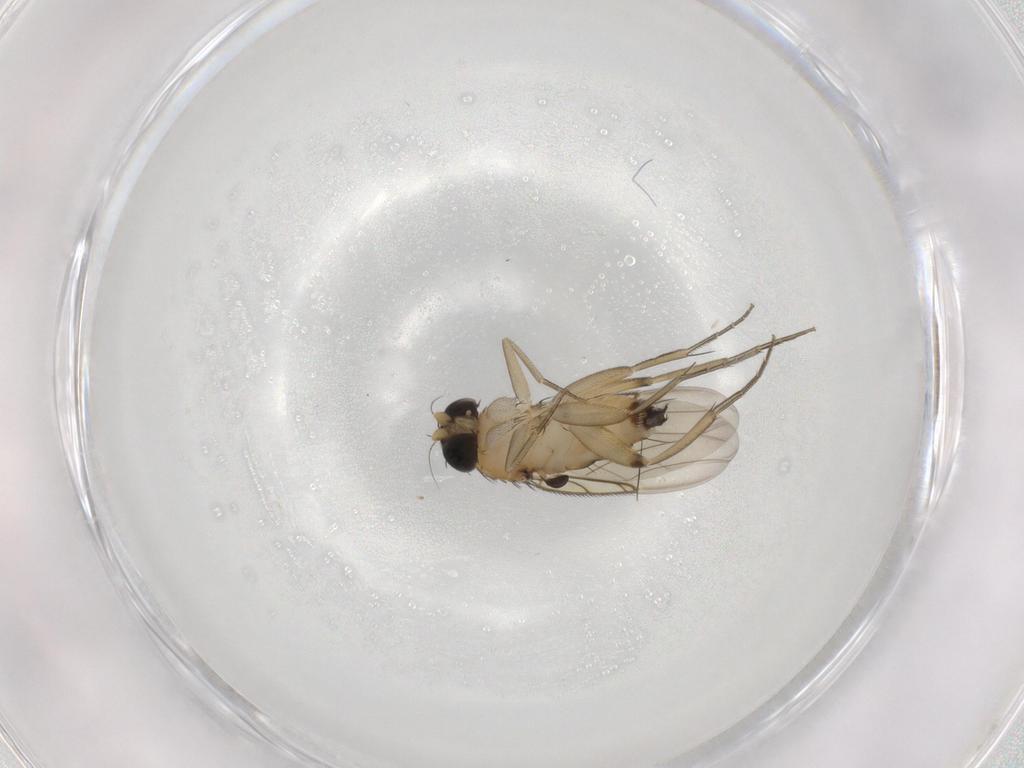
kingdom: Animalia
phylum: Arthropoda
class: Insecta
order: Diptera
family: Phoridae
